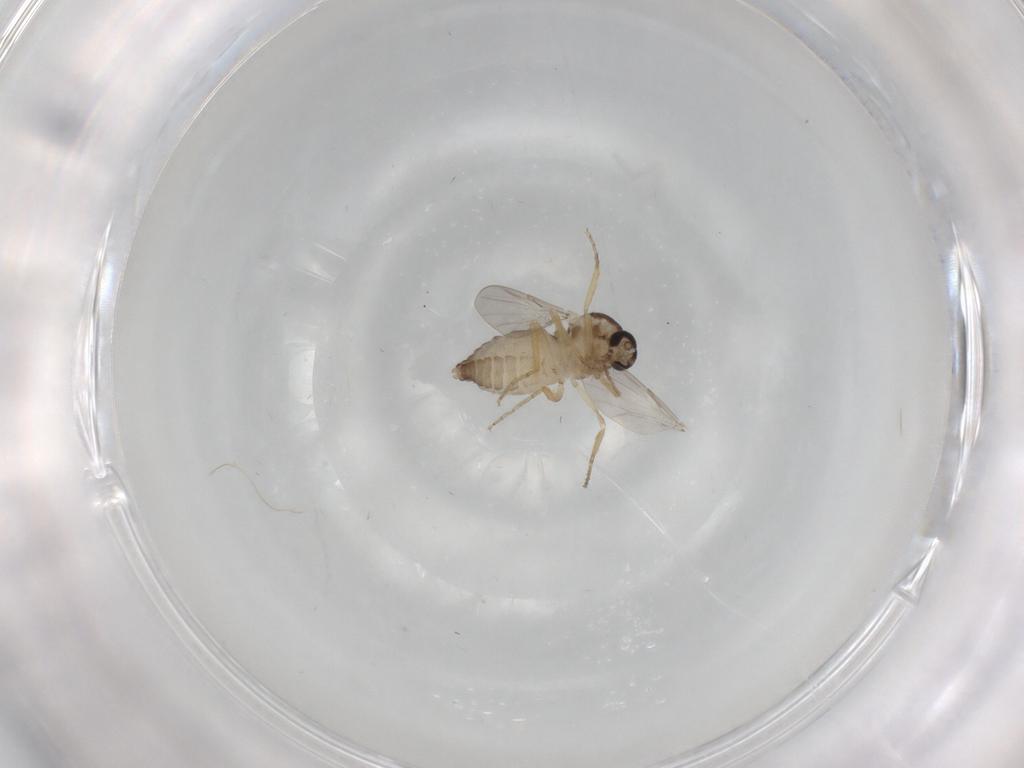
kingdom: Animalia
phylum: Arthropoda
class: Insecta
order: Diptera
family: Ceratopogonidae
